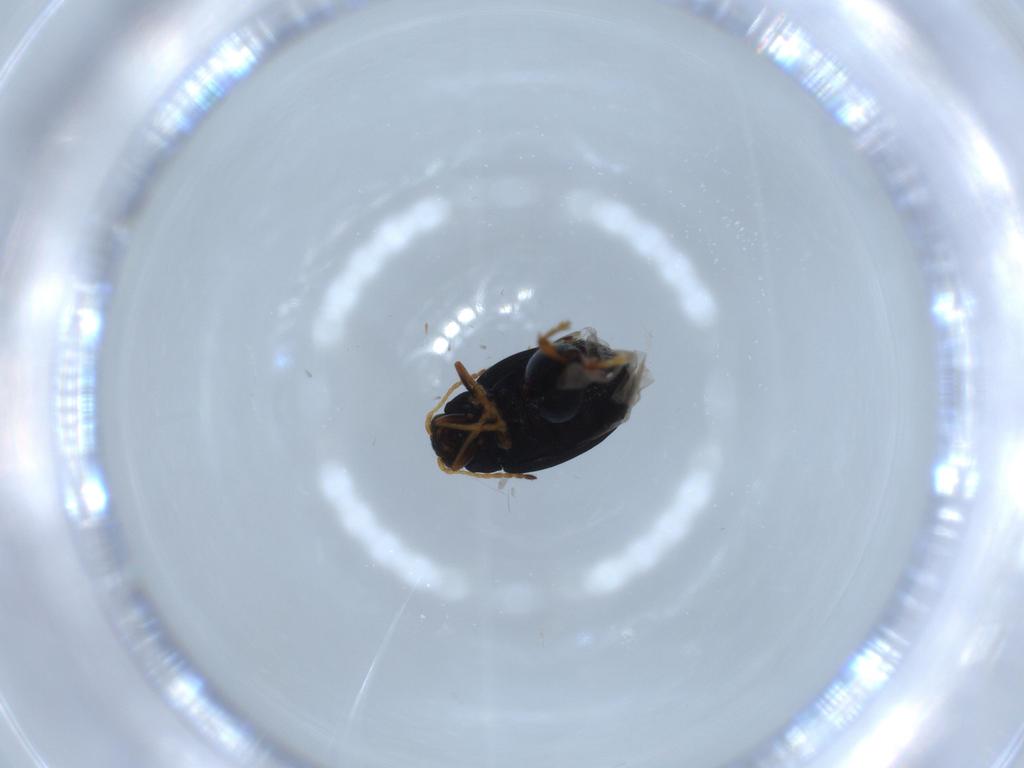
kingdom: Animalia
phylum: Arthropoda
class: Insecta
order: Coleoptera
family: Chrysomelidae
